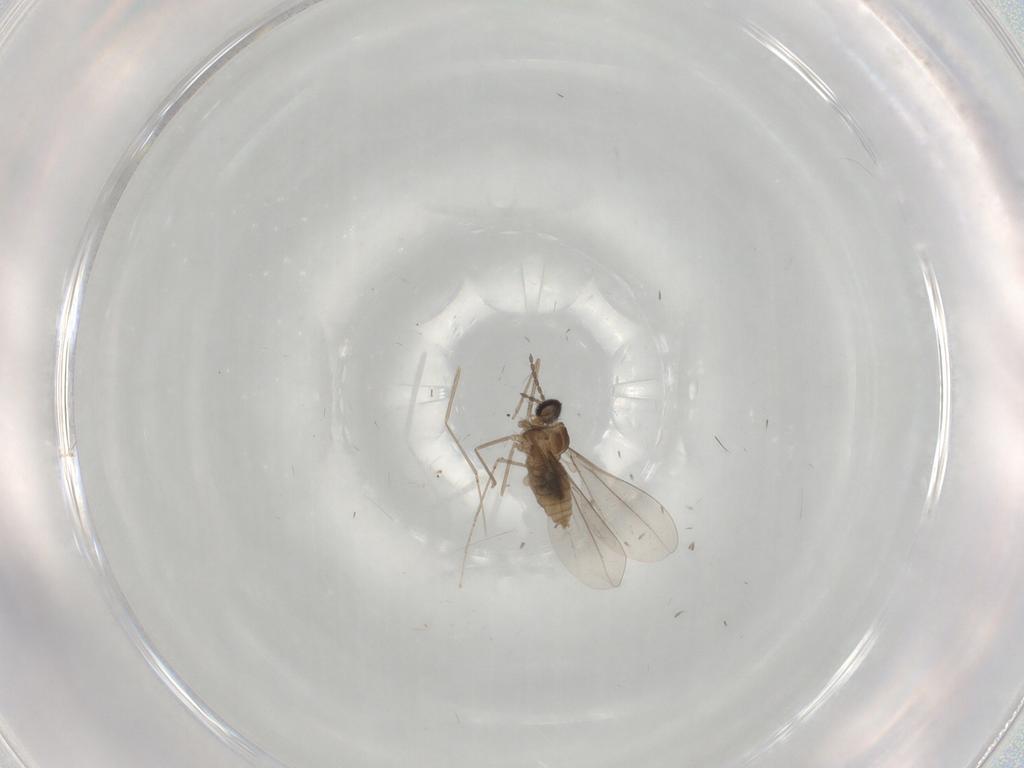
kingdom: Animalia
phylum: Arthropoda
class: Insecta
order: Diptera
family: Cecidomyiidae
